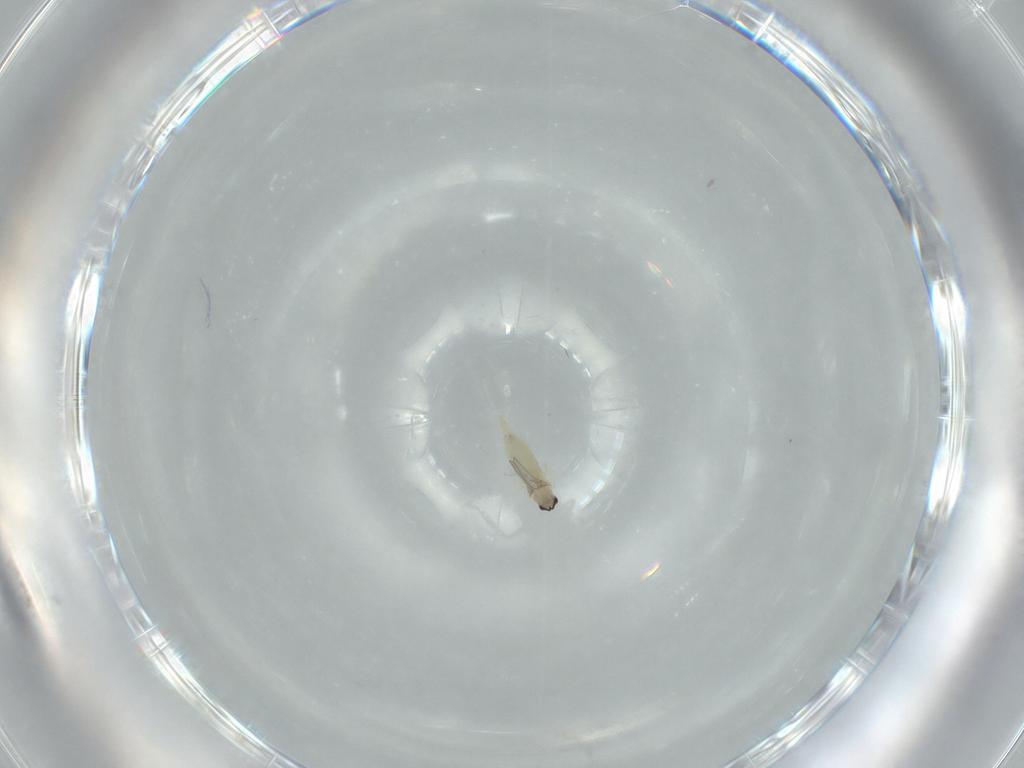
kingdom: Animalia
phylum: Arthropoda
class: Insecta
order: Diptera
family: Cecidomyiidae
